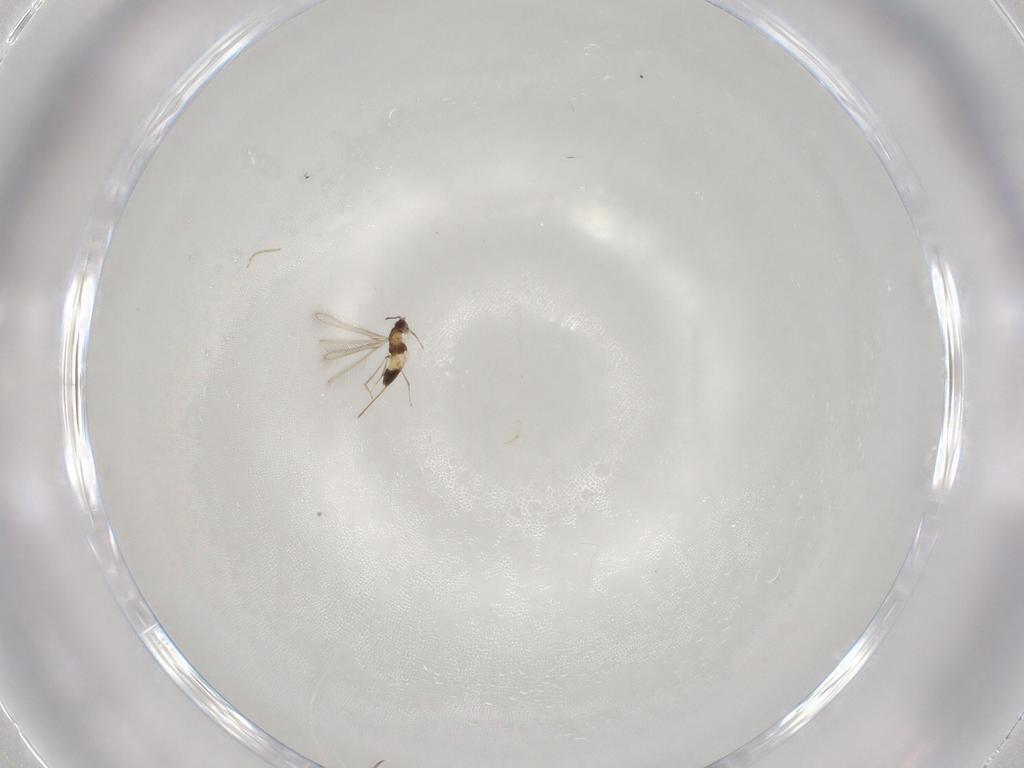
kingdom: Animalia
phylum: Arthropoda
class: Insecta
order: Hymenoptera
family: Mymaridae
